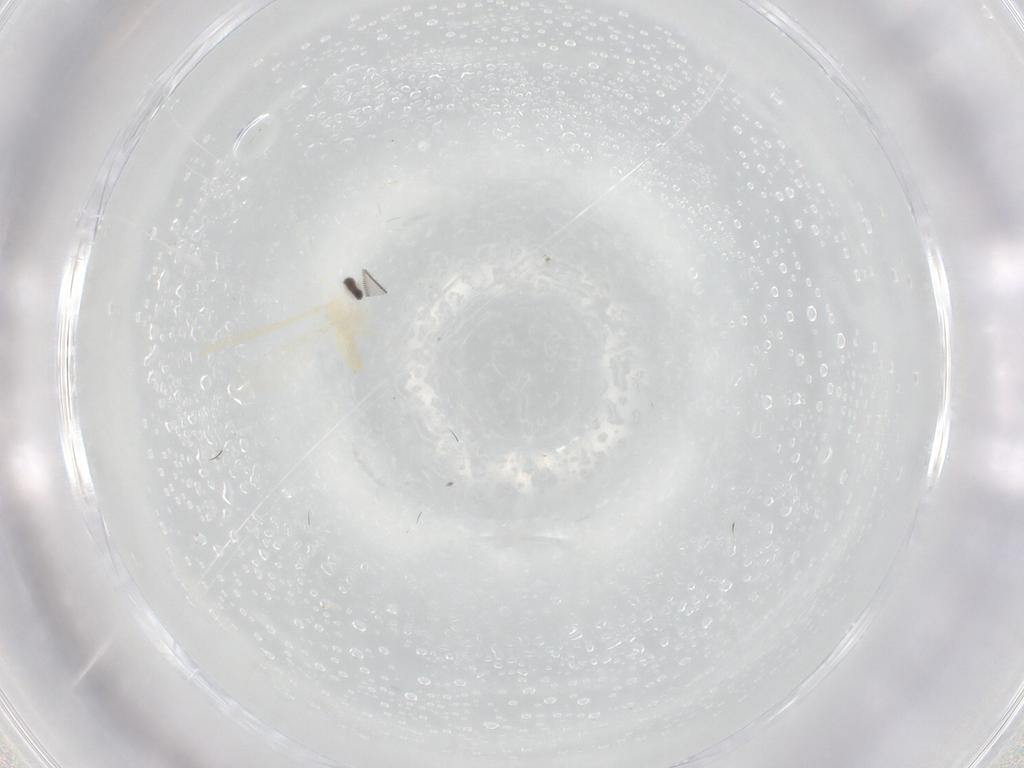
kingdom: Animalia
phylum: Arthropoda
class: Insecta
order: Diptera
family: Cecidomyiidae
